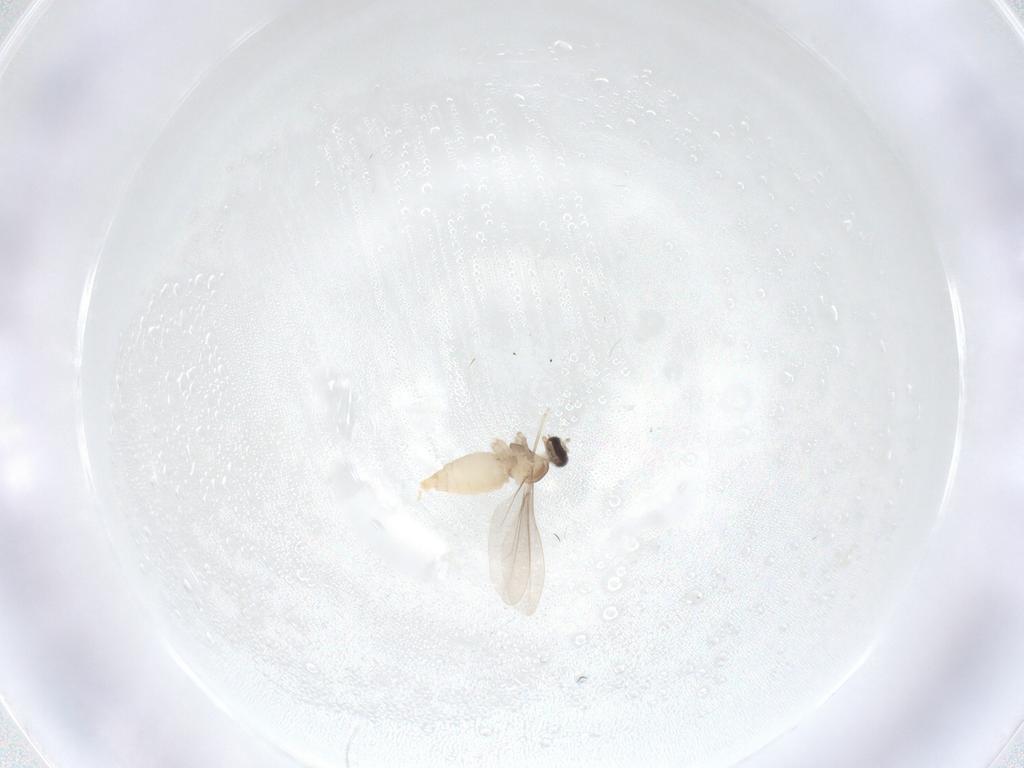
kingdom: Animalia
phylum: Arthropoda
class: Insecta
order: Diptera
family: Cecidomyiidae
